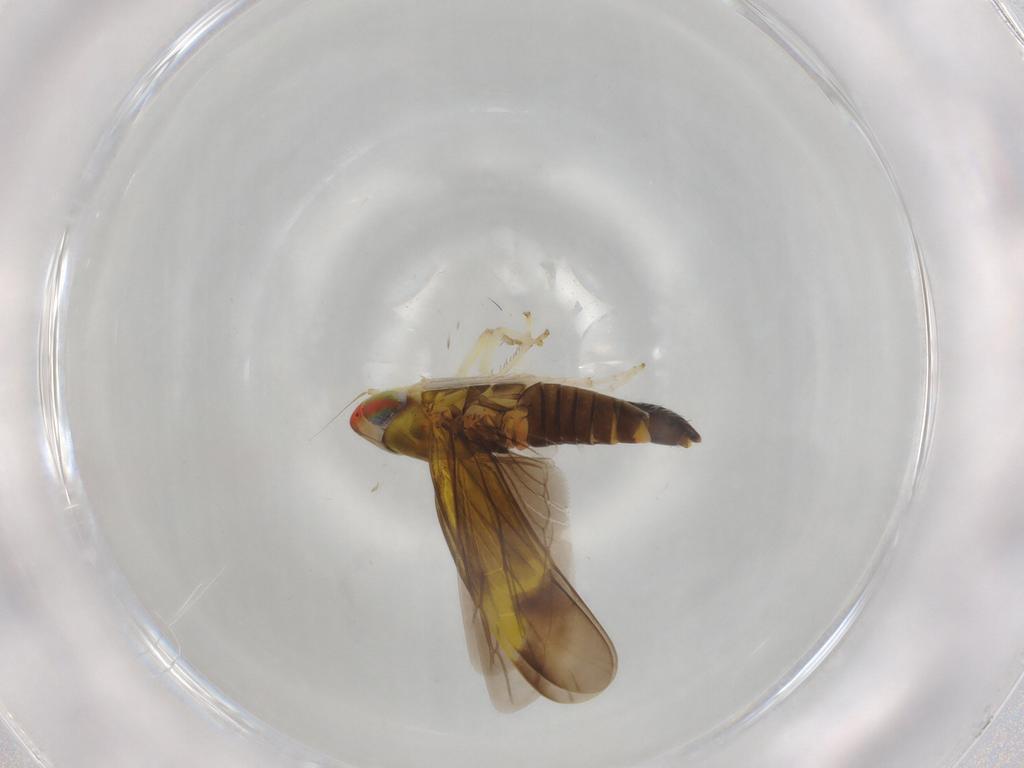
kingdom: Animalia
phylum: Arthropoda
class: Insecta
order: Hemiptera
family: Cicadellidae
